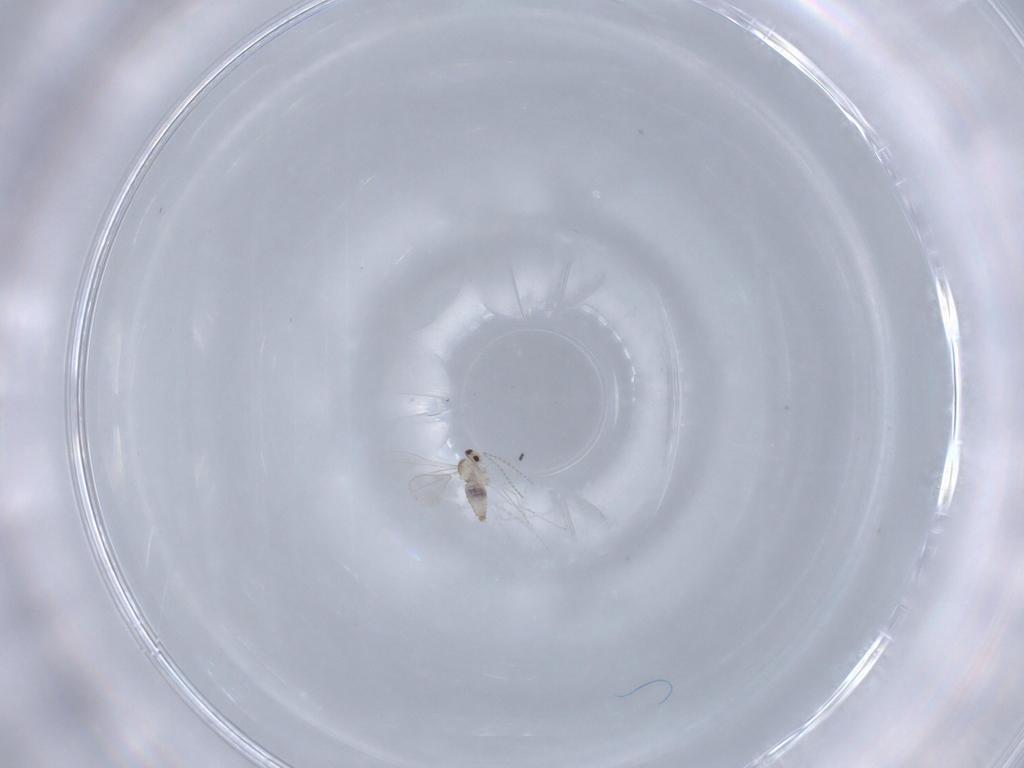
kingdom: Animalia
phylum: Arthropoda
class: Insecta
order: Diptera
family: Cecidomyiidae
